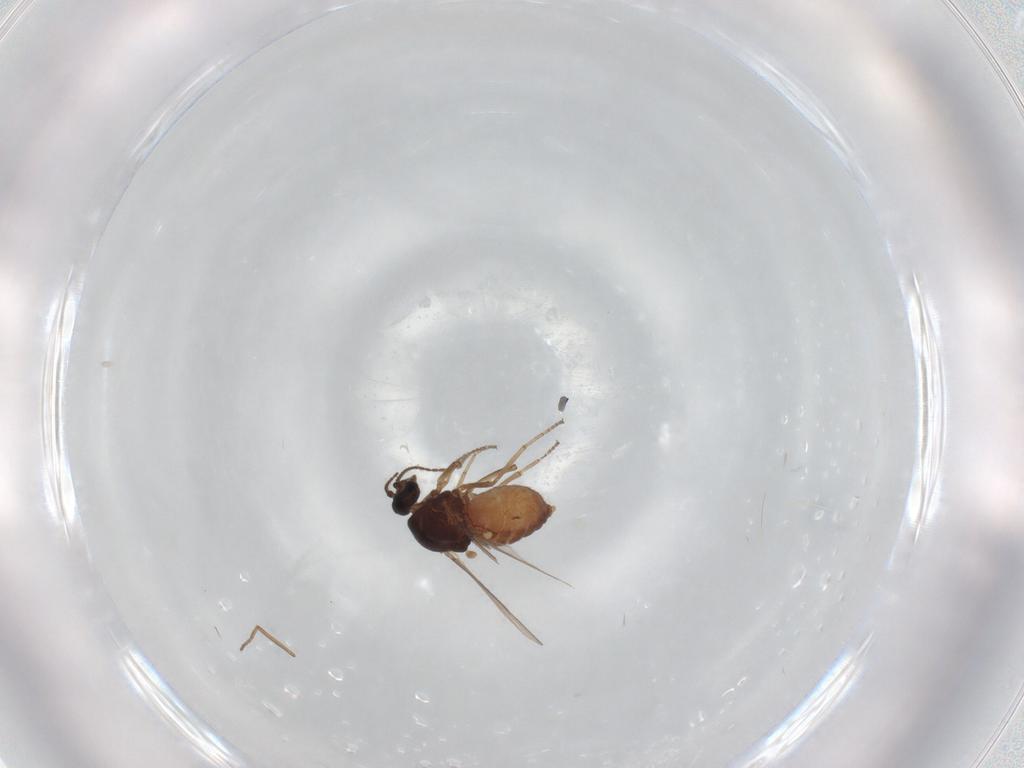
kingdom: Animalia
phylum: Arthropoda
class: Insecta
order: Diptera
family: Ceratopogonidae
